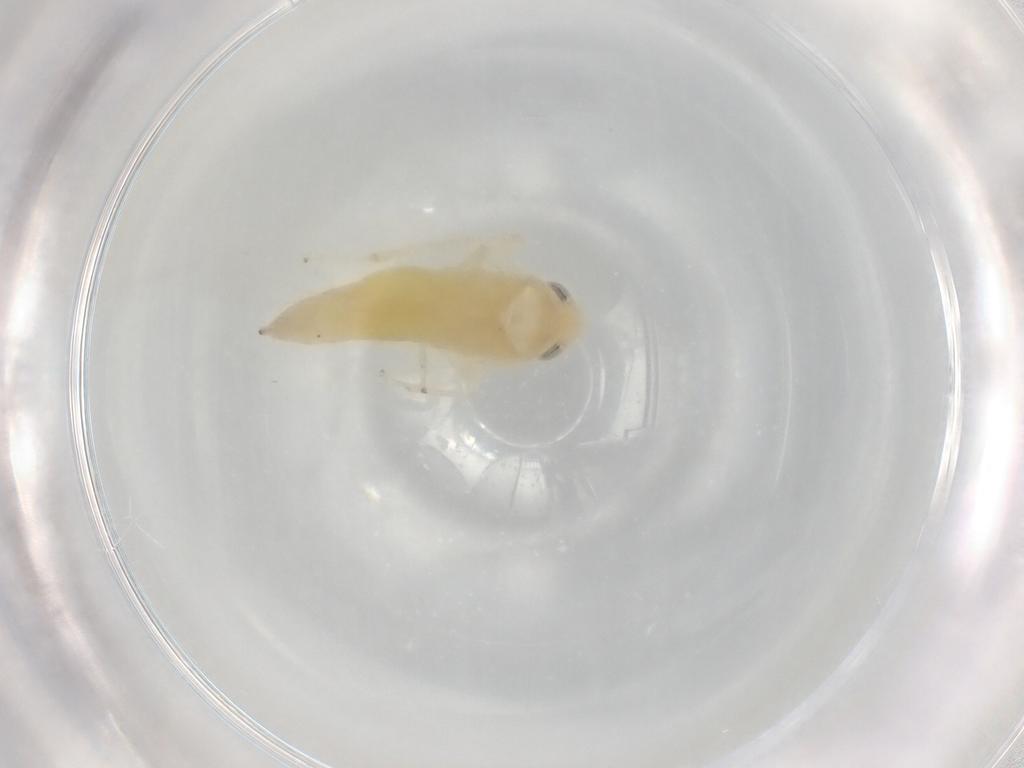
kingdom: Animalia
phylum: Arthropoda
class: Insecta
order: Hemiptera
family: Cicadellidae
